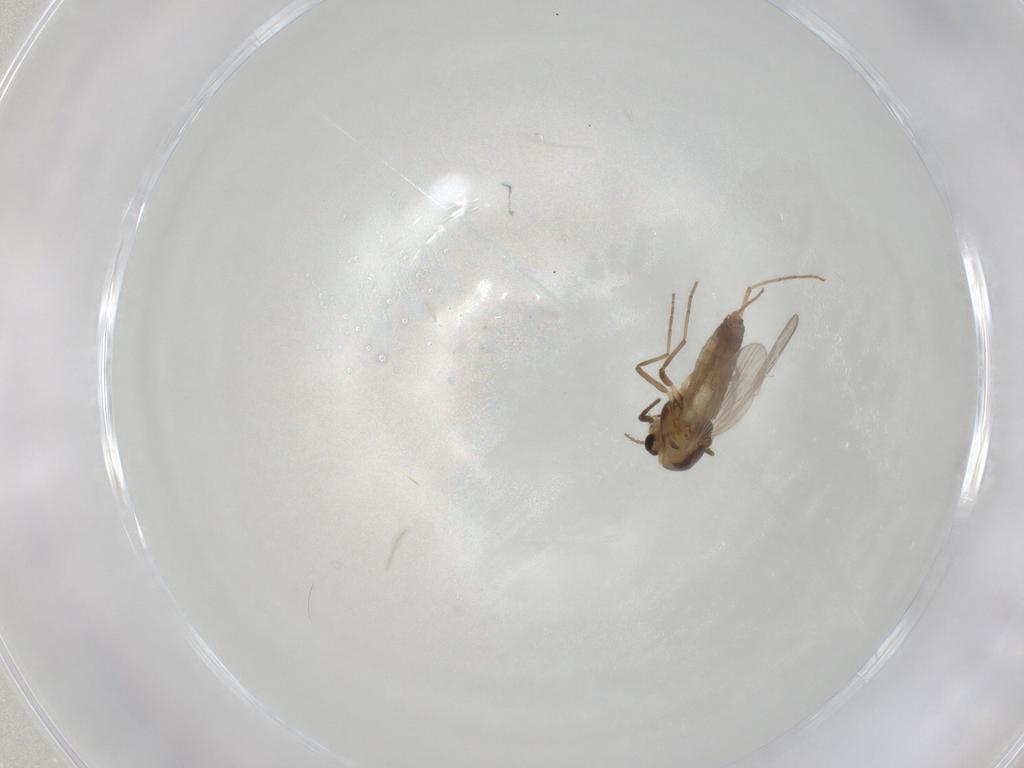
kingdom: Animalia
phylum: Arthropoda
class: Insecta
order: Diptera
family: Chironomidae
